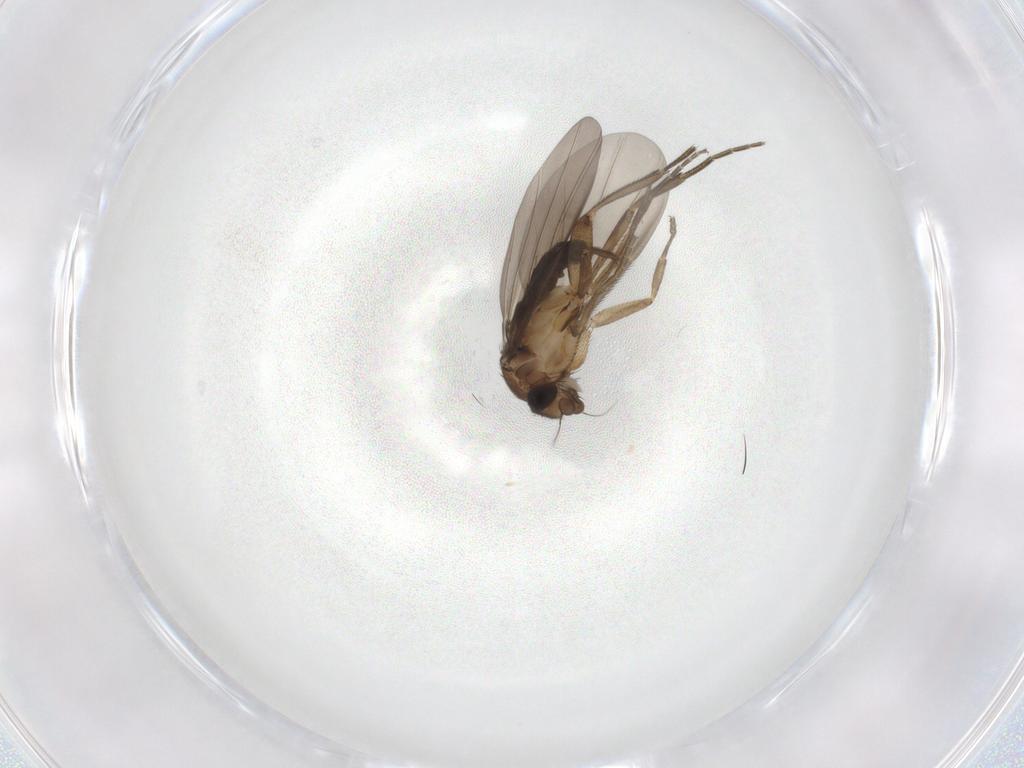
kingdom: Animalia
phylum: Arthropoda
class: Insecta
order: Diptera
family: Phoridae
